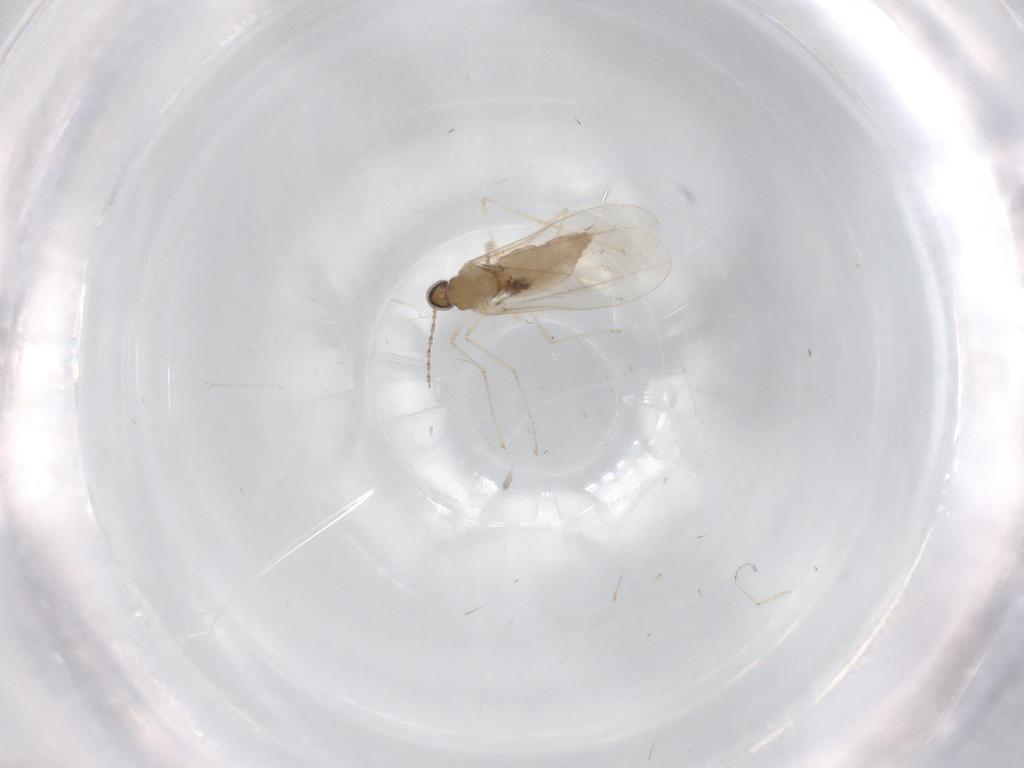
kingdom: Animalia
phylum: Arthropoda
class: Insecta
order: Diptera
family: Cecidomyiidae
